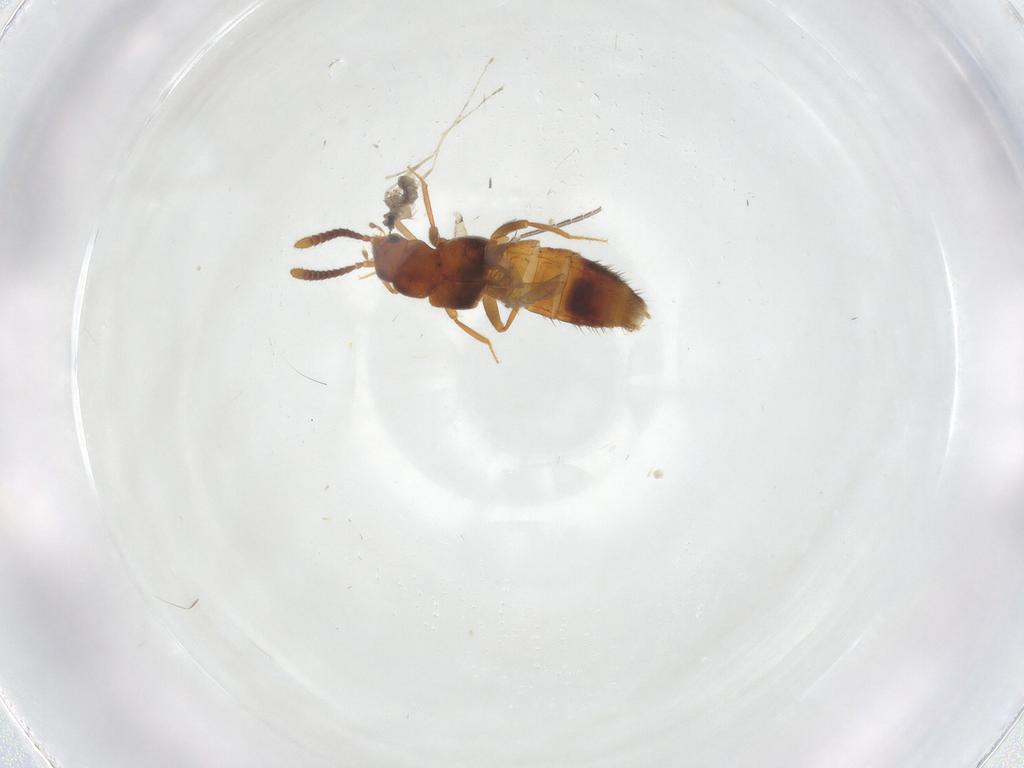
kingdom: Animalia
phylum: Arthropoda
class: Insecta
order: Coleoptera
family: Staphylinidae
